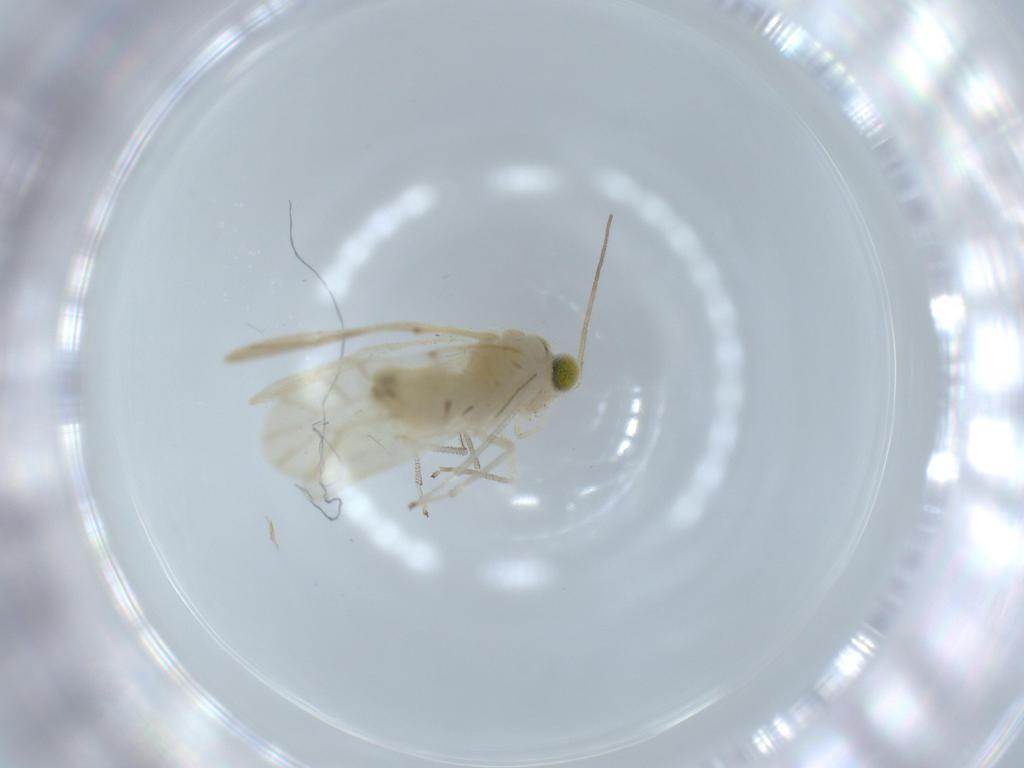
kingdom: Animalia
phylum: Arthropoda
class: Insecta
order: Psocodea
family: Caeciliusidae
